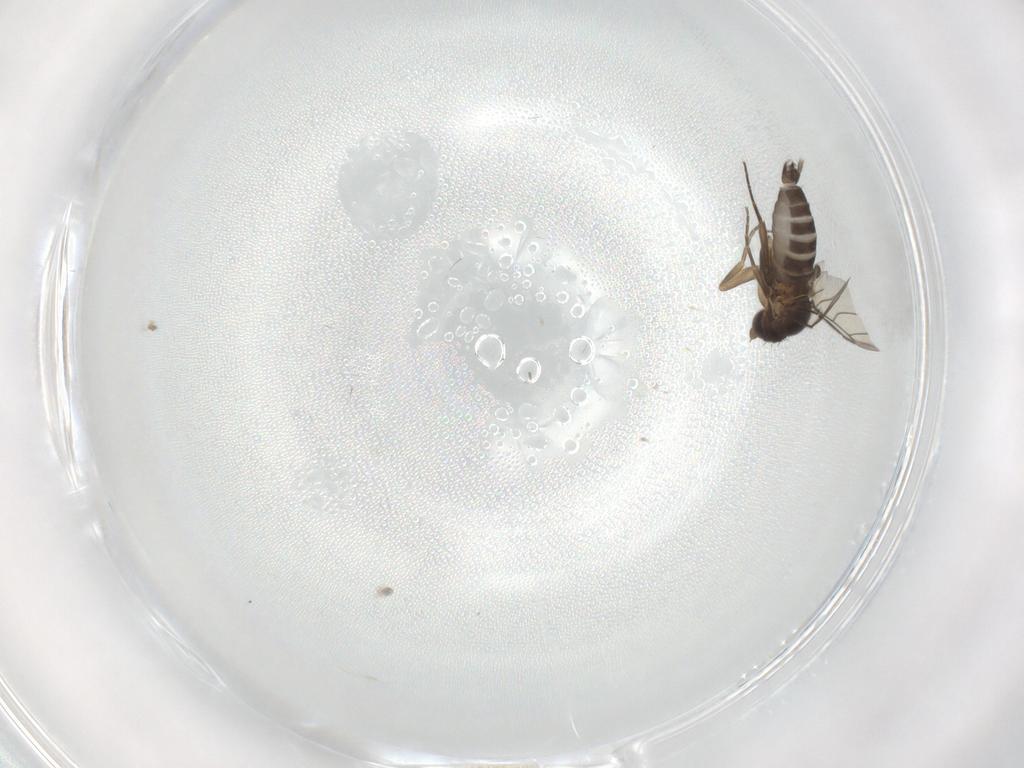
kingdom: Animalia
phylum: Arthropoda
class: Insecta
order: Diptera
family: Phoridae
